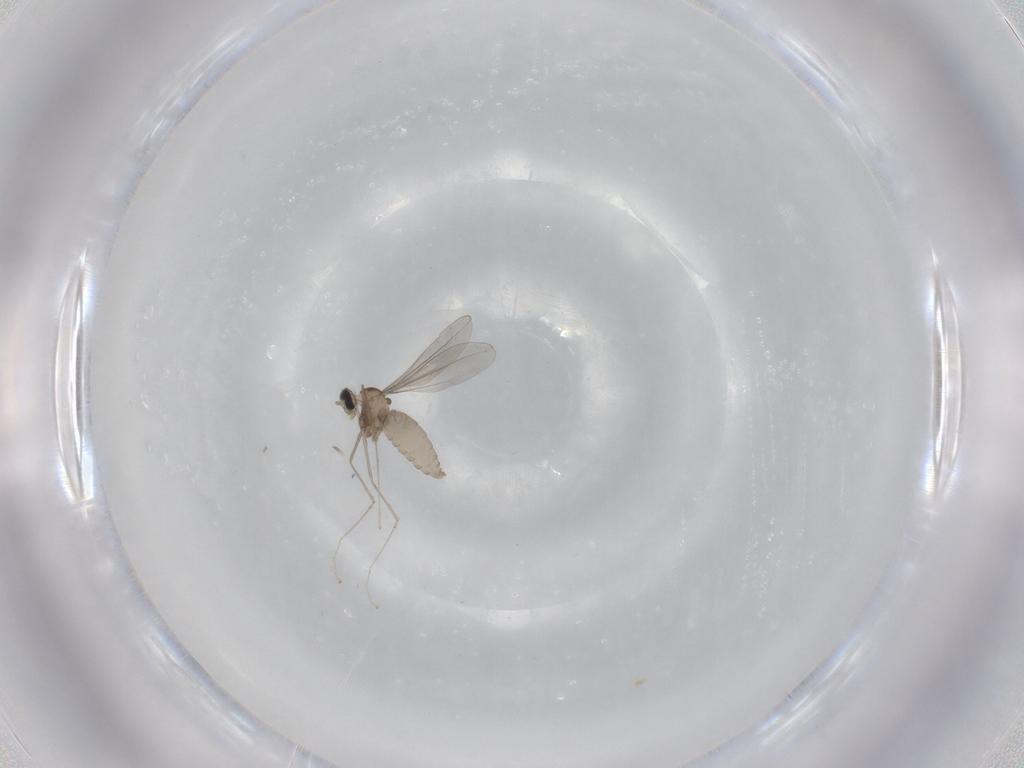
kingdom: Animalia
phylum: Arthropoda
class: Insecta
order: Diptera
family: Cecidomyiidae
